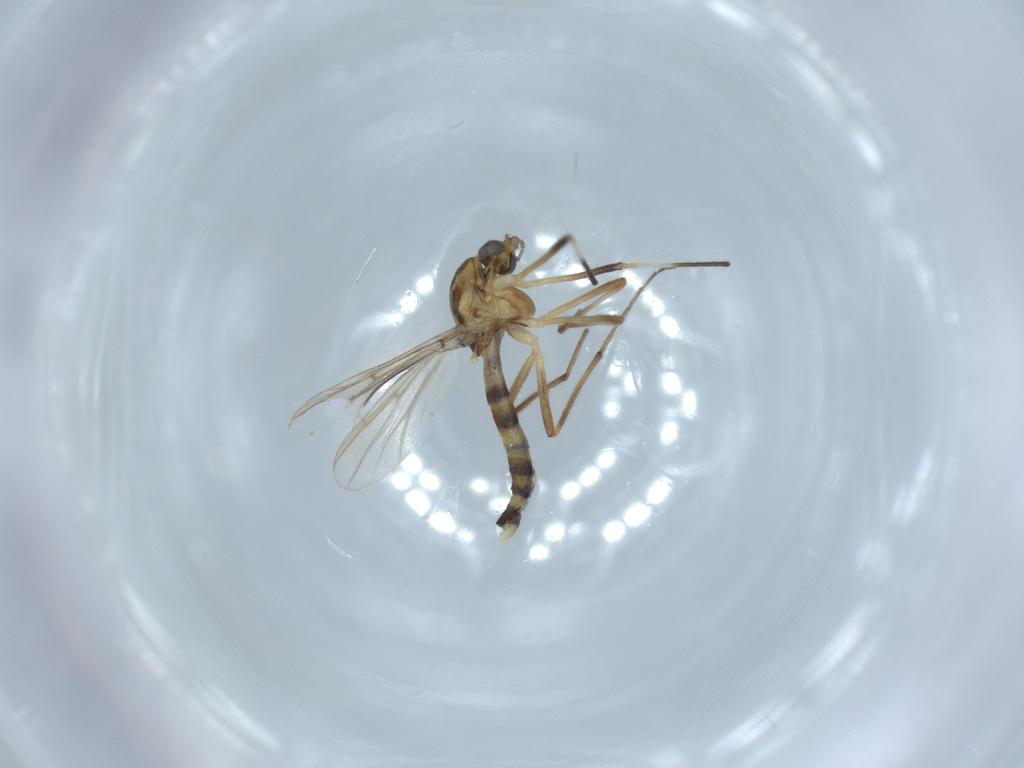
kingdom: Animalia
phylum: Arthropoda
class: Insecta
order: Diptera
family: Chironomidae
